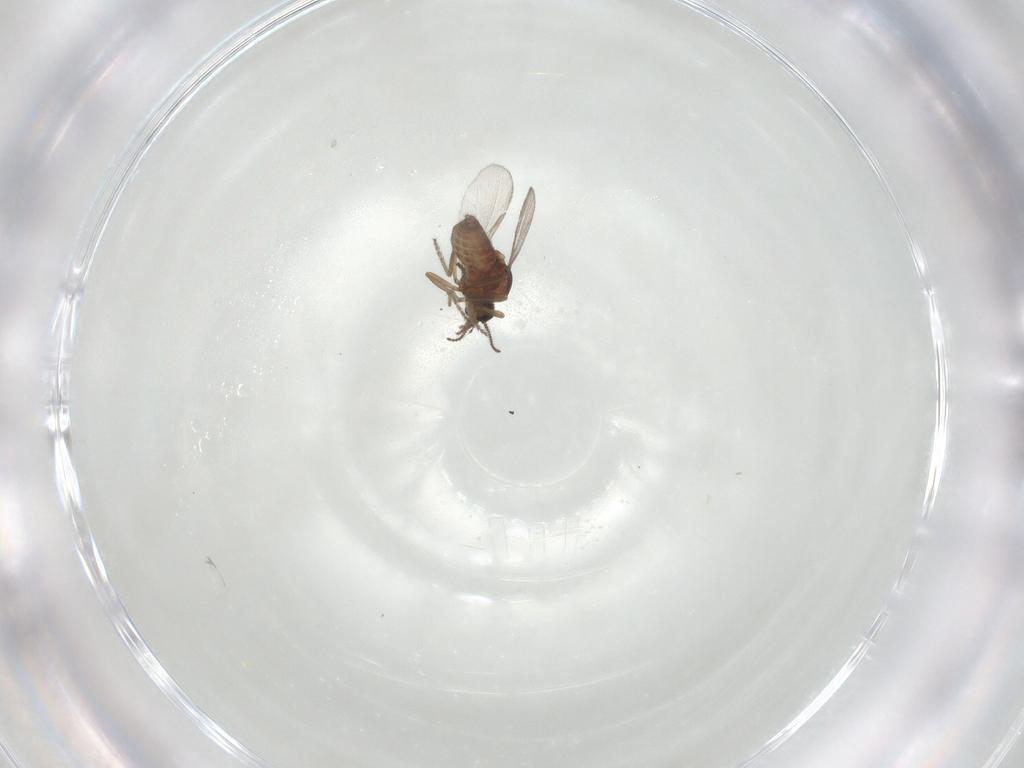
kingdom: Animalia
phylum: Arthropoda
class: Insecta
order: Diptera
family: Ceratopogonidae
